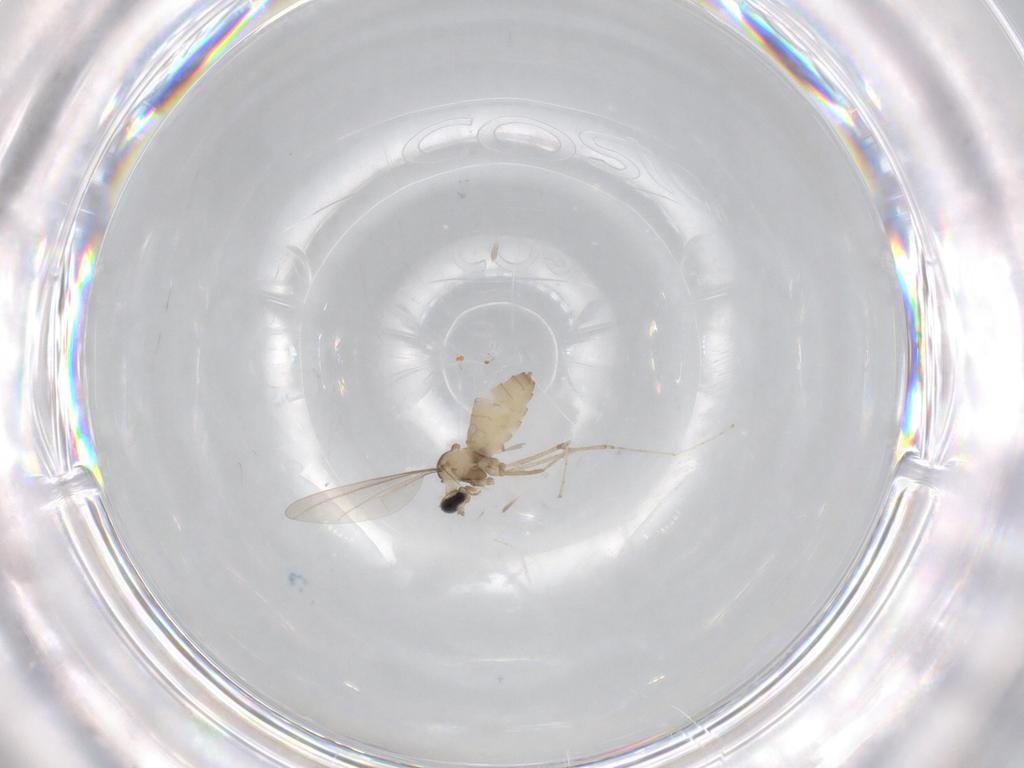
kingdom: Animalia
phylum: Arthropoda
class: Insecta
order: Diptera
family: Cecidomyiidae
